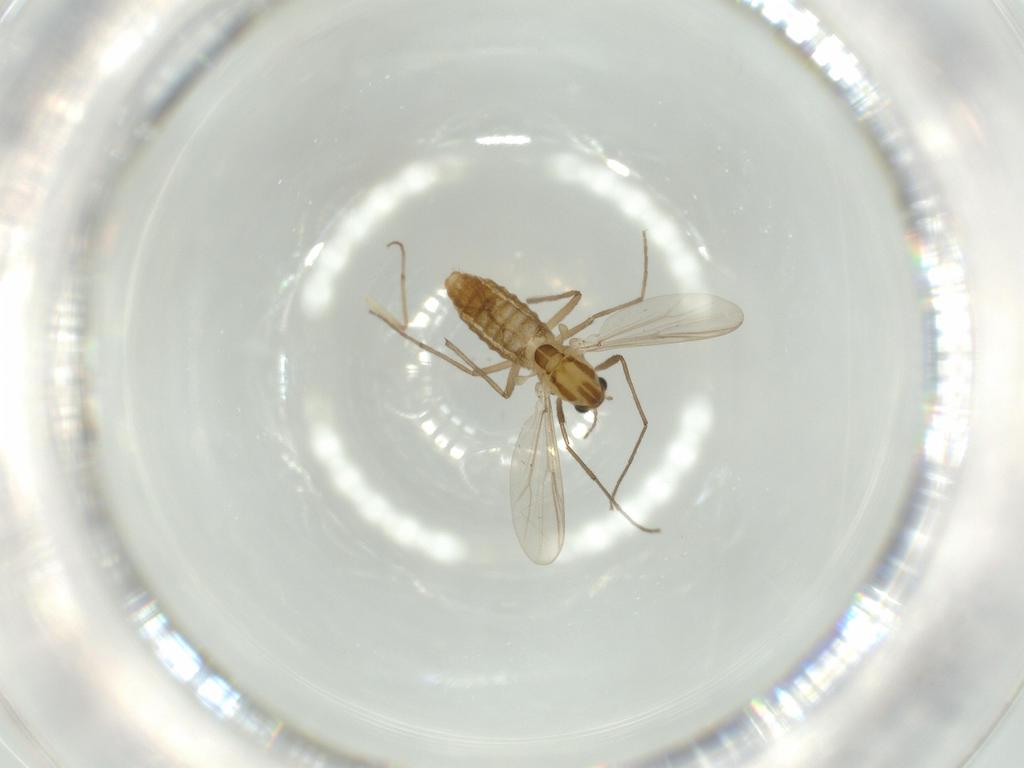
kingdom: Animalia
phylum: Arthropoda
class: Insecta
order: Diptera
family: Chironomidae
